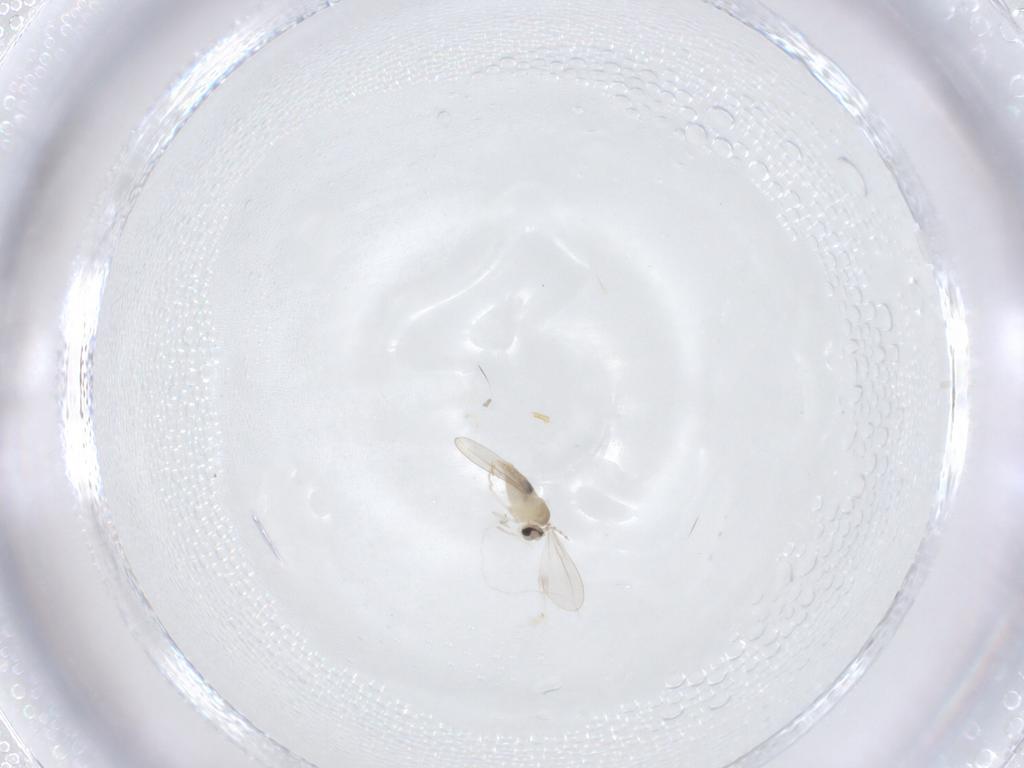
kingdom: Animalia
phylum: Arthropoda
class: Insecta
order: Diptera
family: Cecidomyiidae
